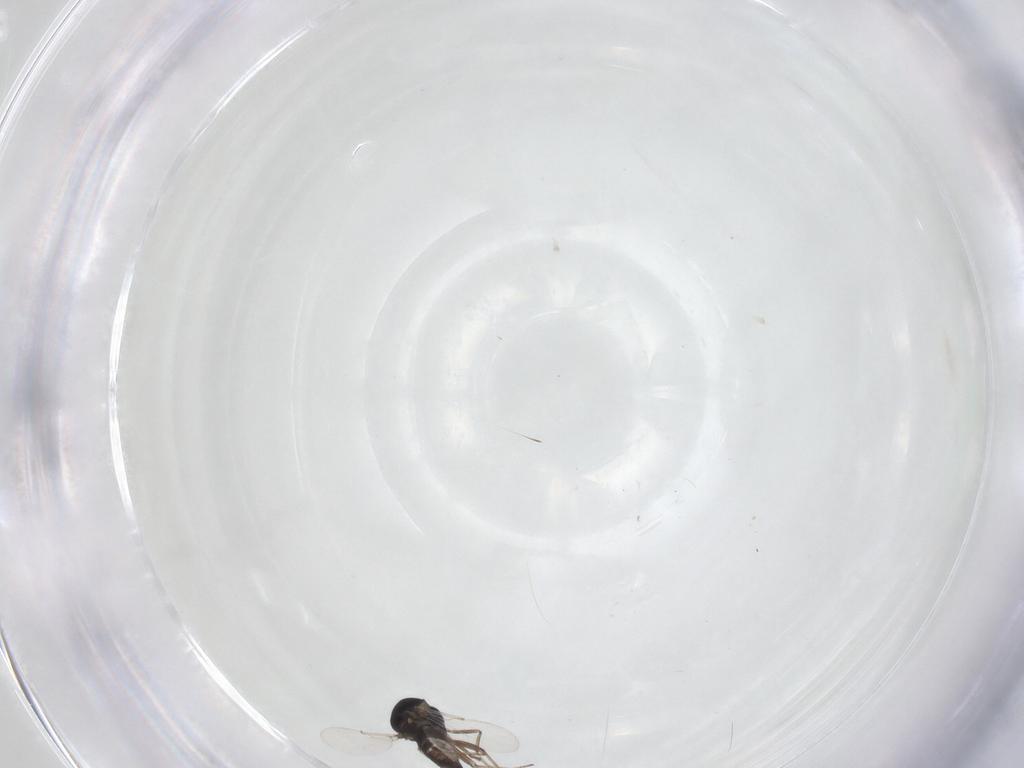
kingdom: Animalia
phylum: Arthropoda
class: Insecta
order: Diptera
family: Ceratopogonidae
